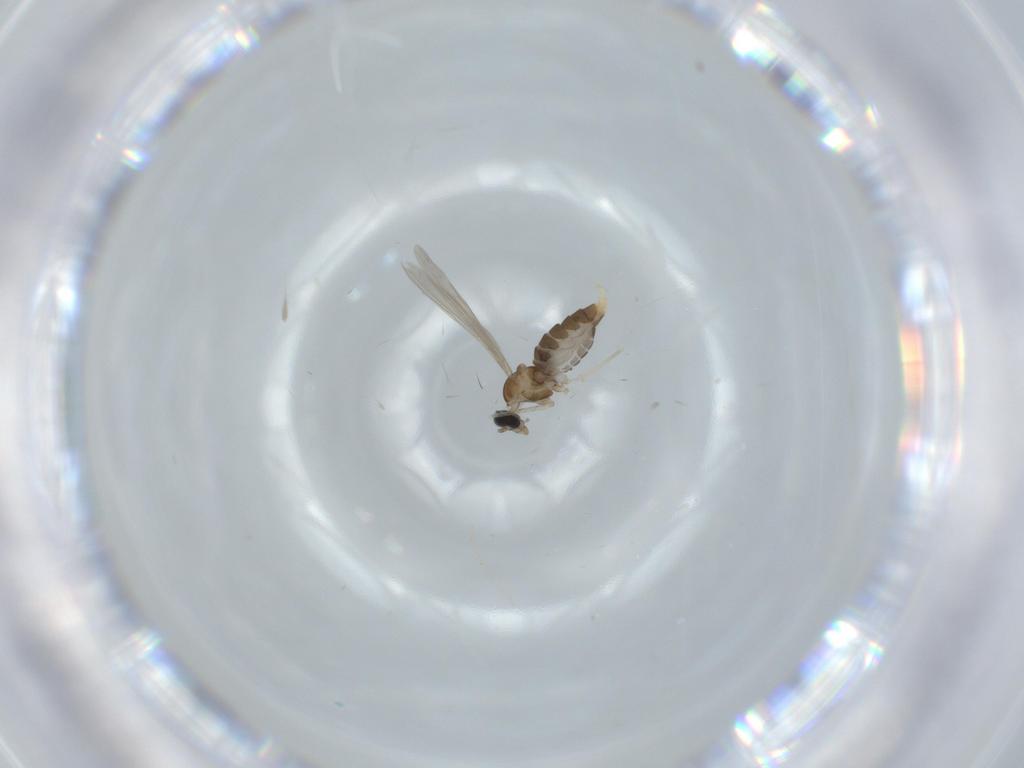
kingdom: Animalia
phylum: Arthropoda
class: Insecta
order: Diptera
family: Cecidomyiidae
